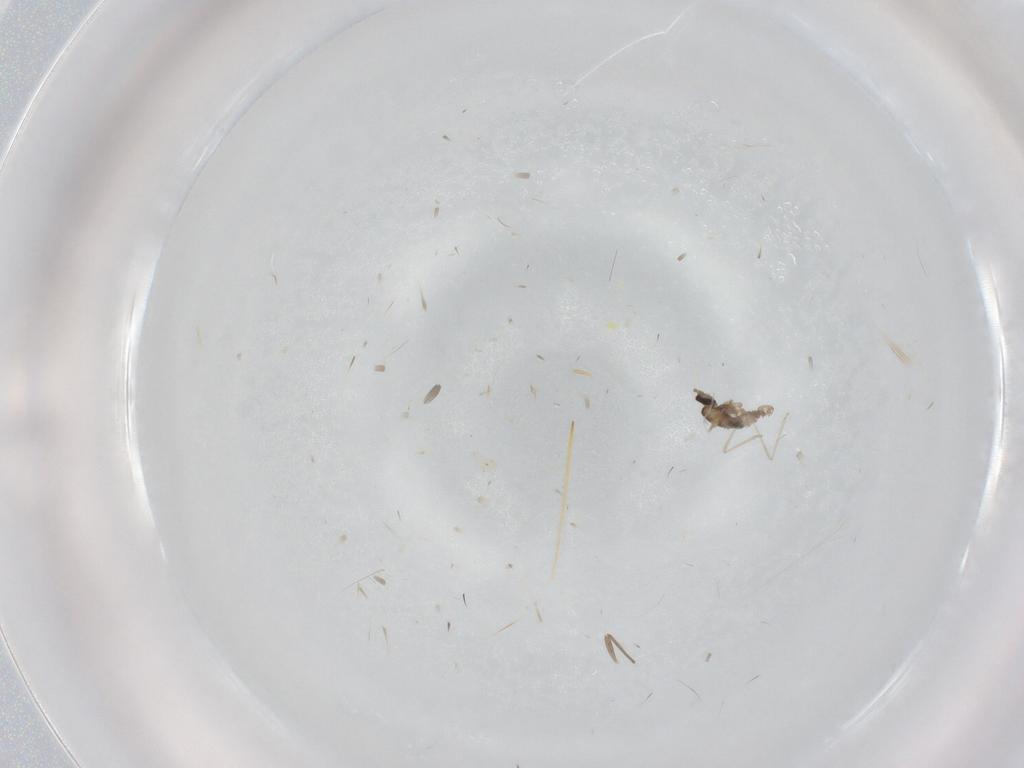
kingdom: Animalia
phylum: Arthropoda
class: Insecta
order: Diptera
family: Cecidomyiidae
